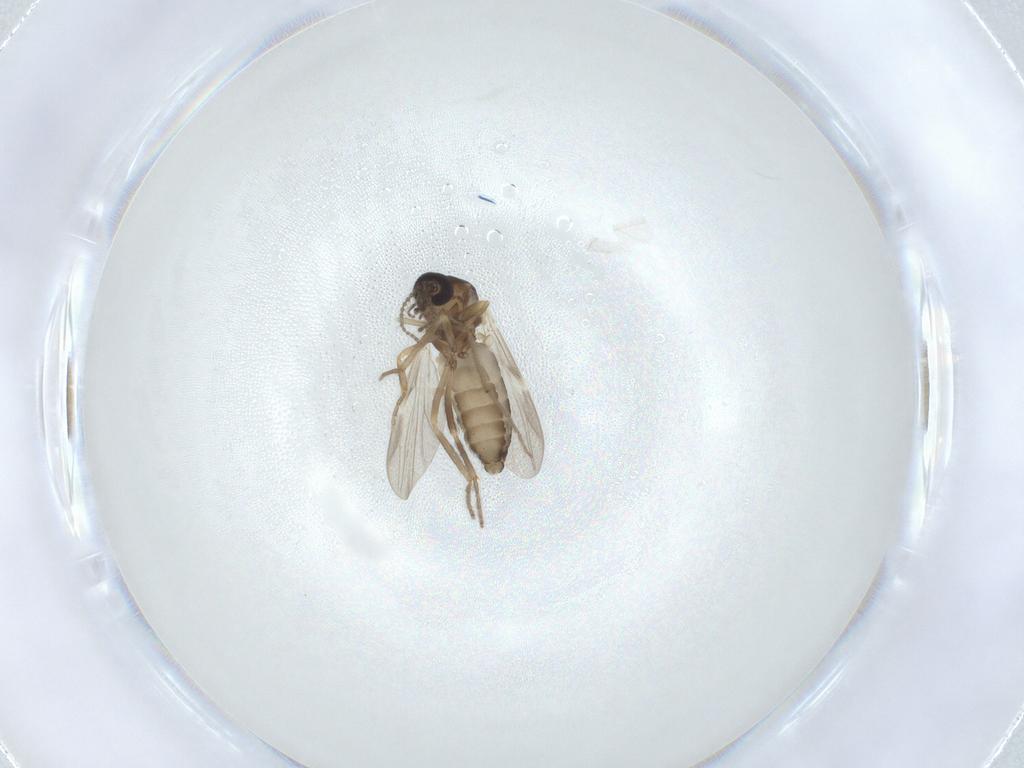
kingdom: Animalia
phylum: Arthropoda
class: Insecta
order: Diptera
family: Ceratopogonidae
